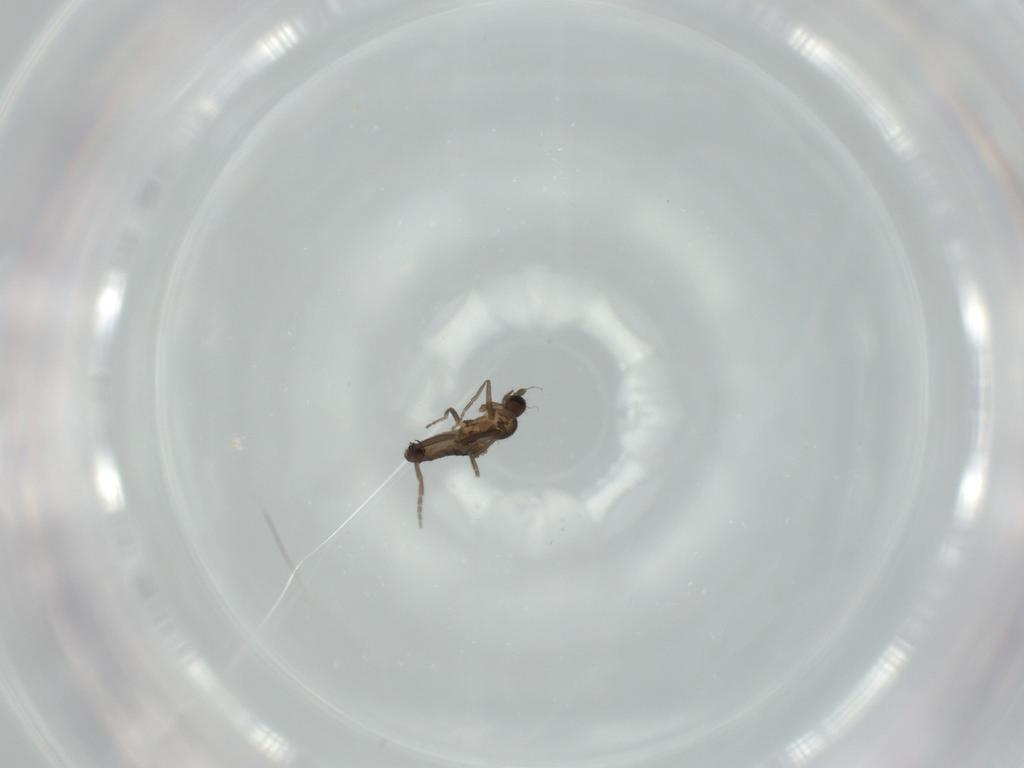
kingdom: Animalia
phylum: Arthropoda
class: Insecta
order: Diptera
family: Phoridae
